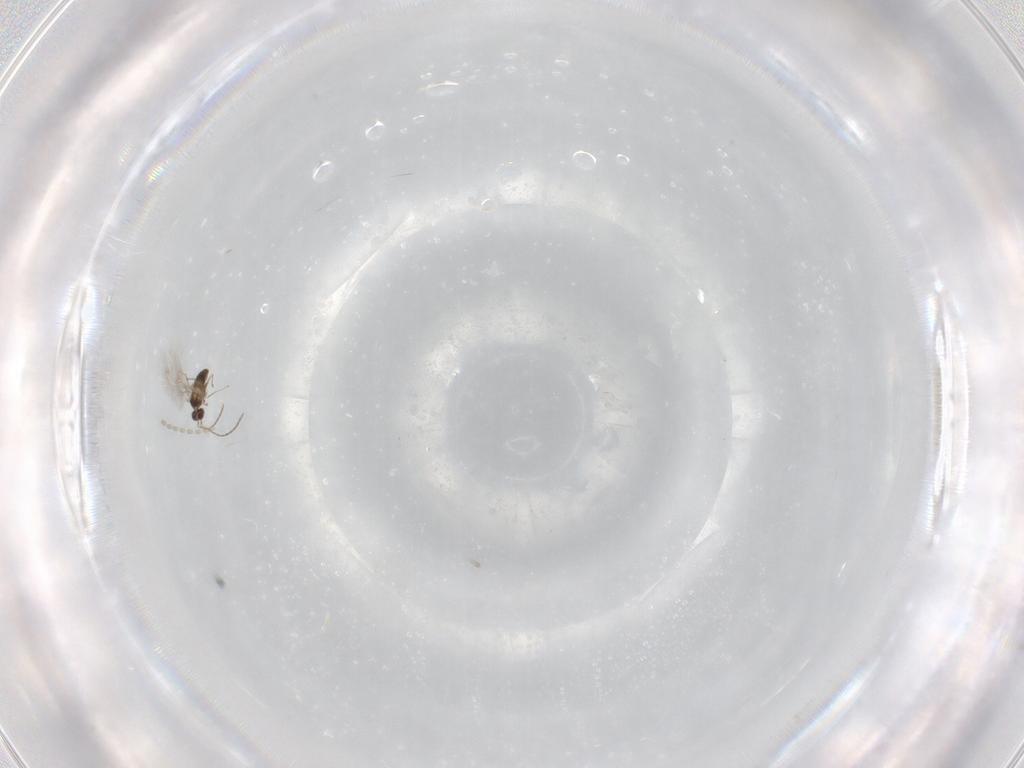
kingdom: Animalia
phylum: Arthropoda
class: Insecta
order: Hymenoptera
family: Mymaridae
